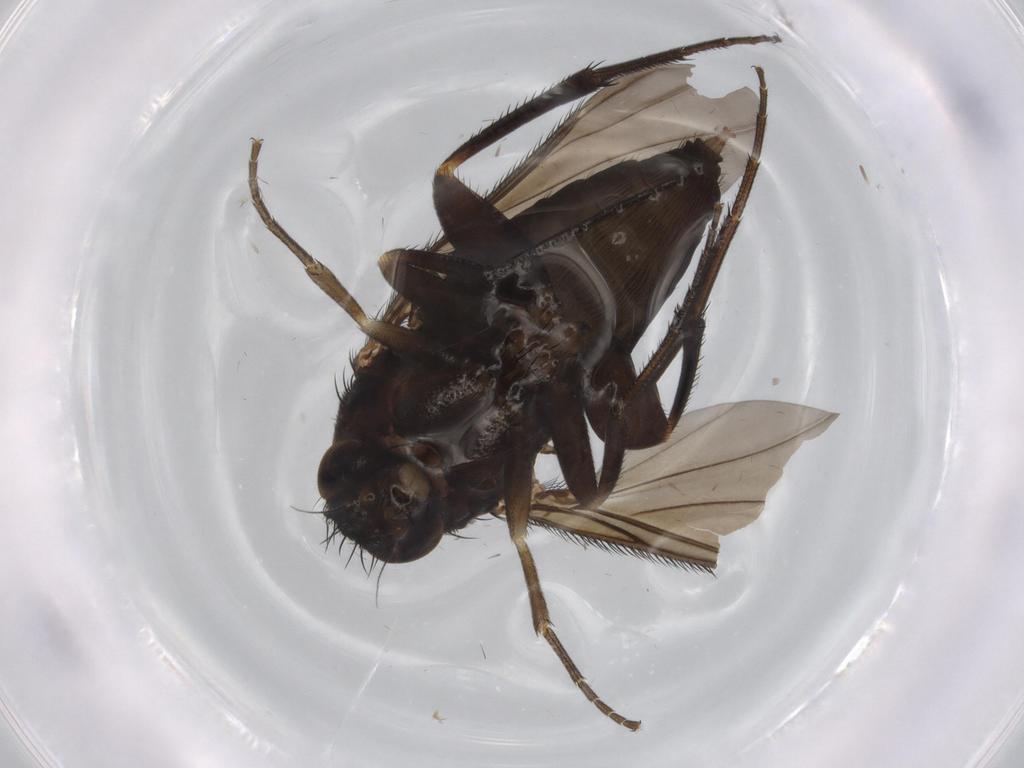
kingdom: Animalia
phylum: Arthropoda
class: Insecta
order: Diptera
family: Phoridae
